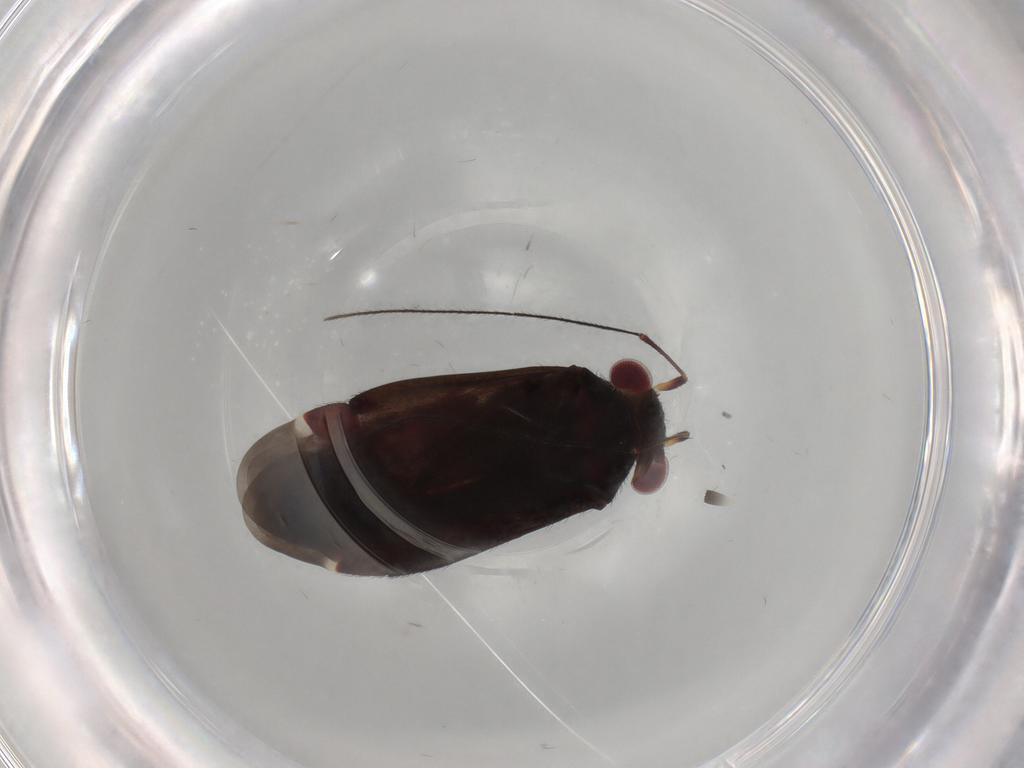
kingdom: Animalia
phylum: Arthropoda
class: Insecta
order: Hemiptera
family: Miridae
